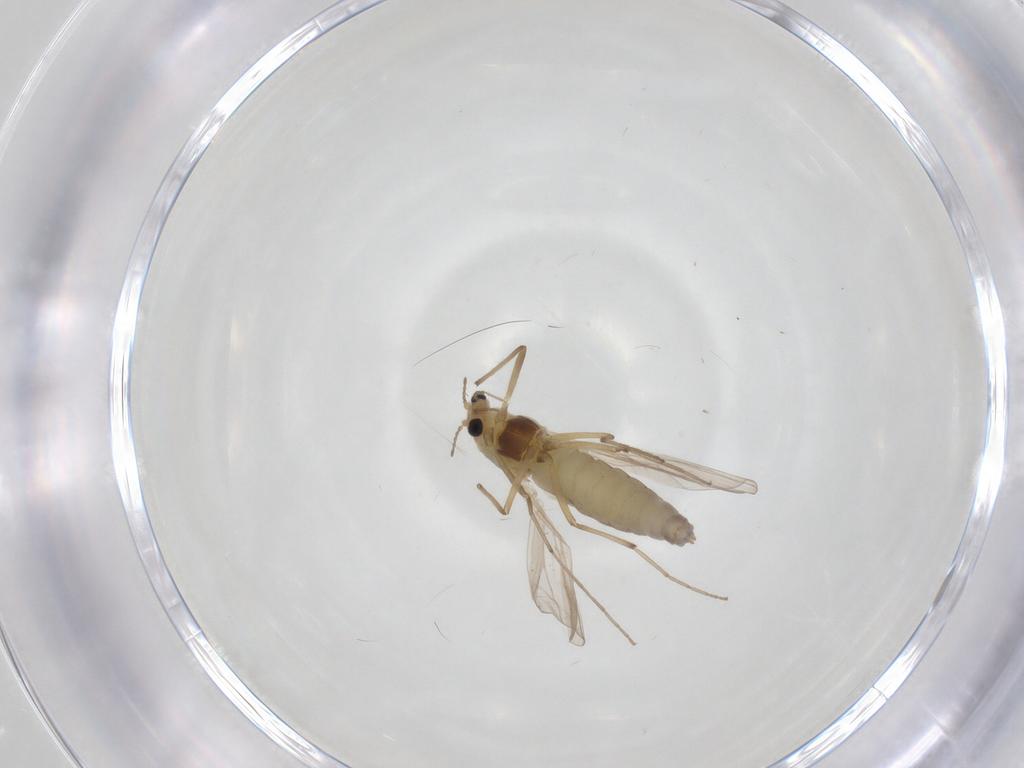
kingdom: Animalia
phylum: Arthropoda
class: Insecta
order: Diptera
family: Chironomidae
